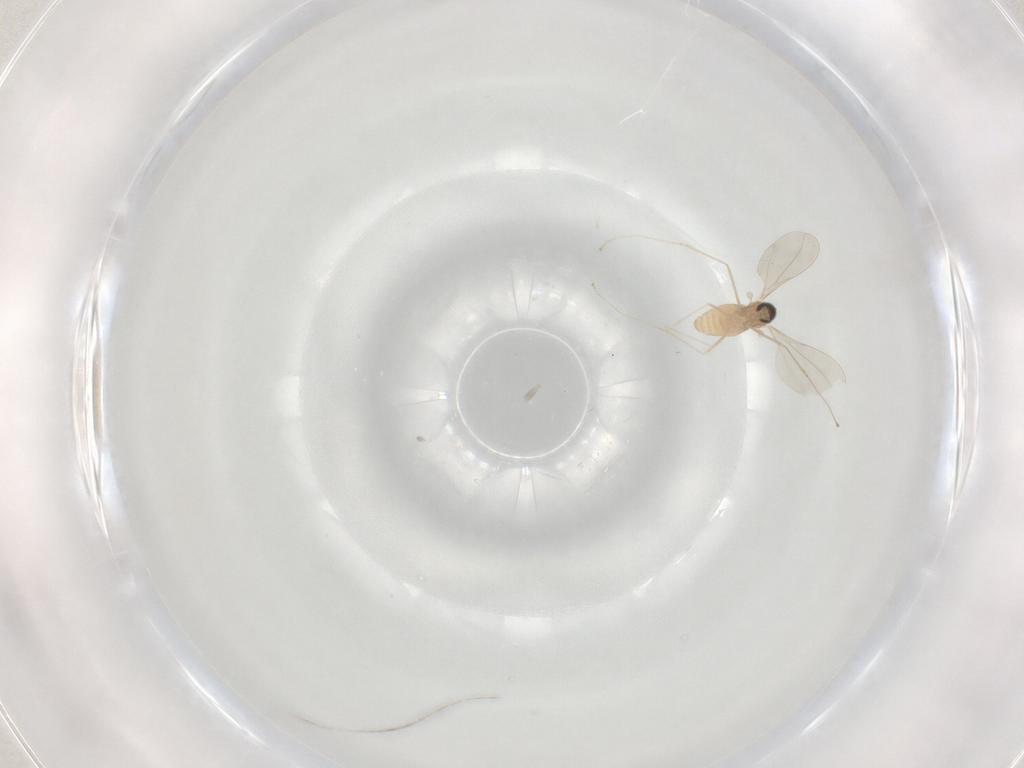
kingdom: Animalia
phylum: Arthropoda
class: Insecta
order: Diptera
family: Cecidomyiidae
